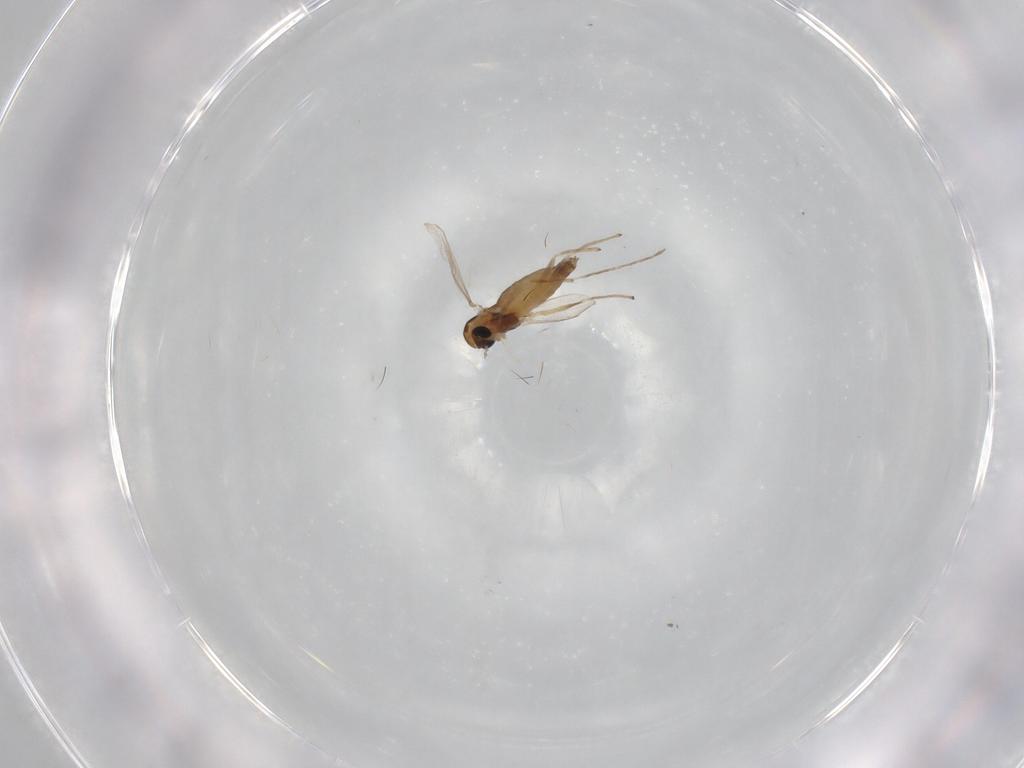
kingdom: Animalia
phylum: Arthropoda
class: Insecta
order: Diptera
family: Chironomidae
